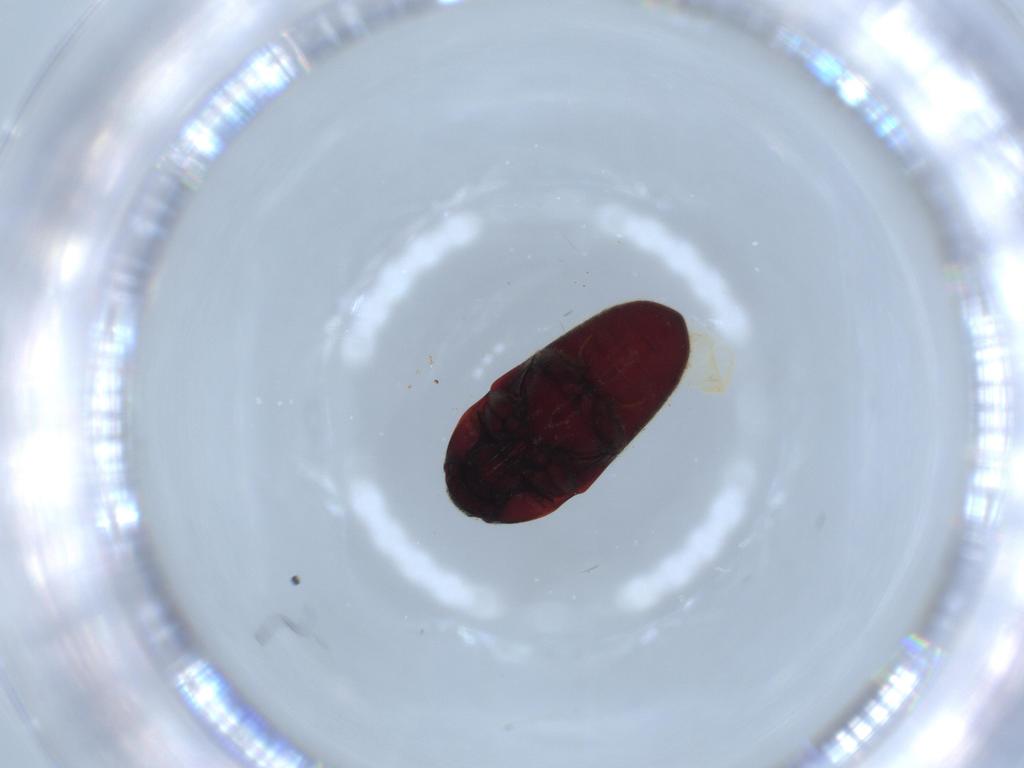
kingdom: Animalia
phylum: Arthropoda
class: Insecta
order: Coleoptera
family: Throscidae
